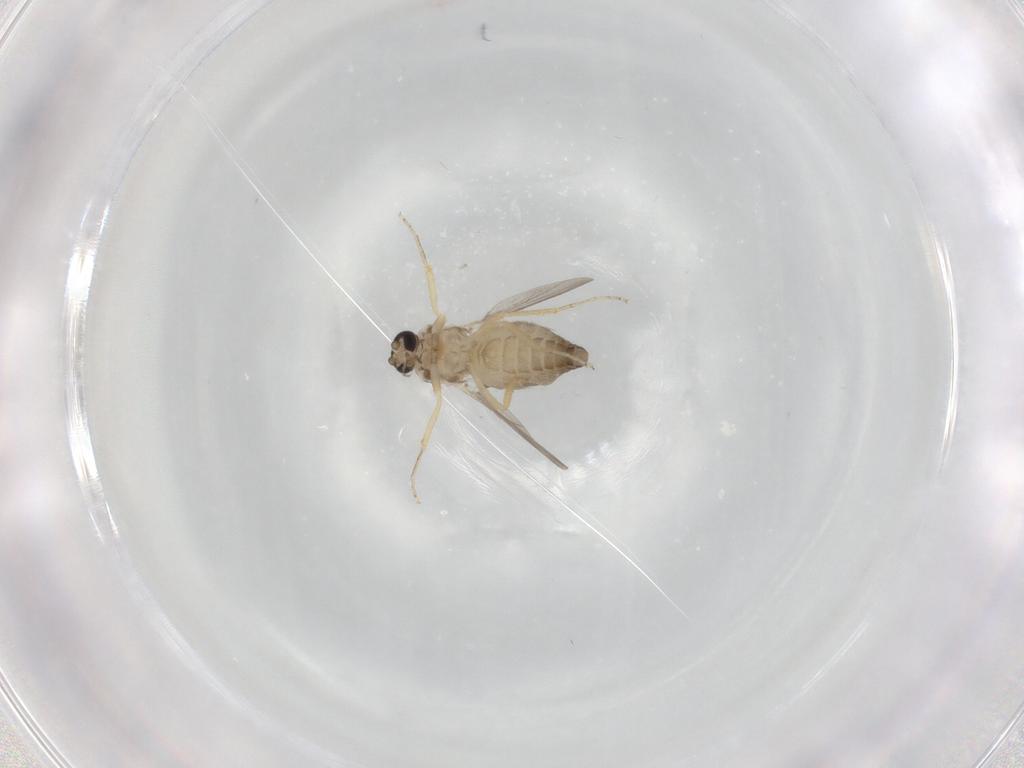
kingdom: Animalia
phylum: Arthropoda
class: Insecta
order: Diptera
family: Ceratopogonidae
